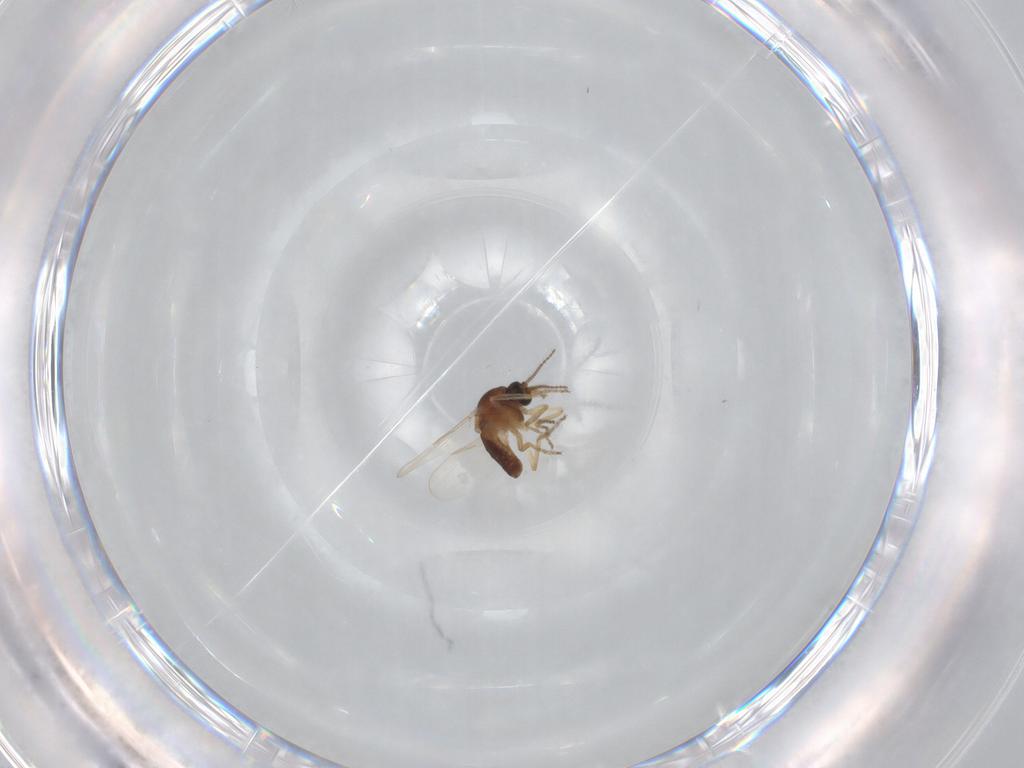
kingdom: Animalia
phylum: Arthropoda
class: Insecta
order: Diptera
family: Ceratopogonidae
